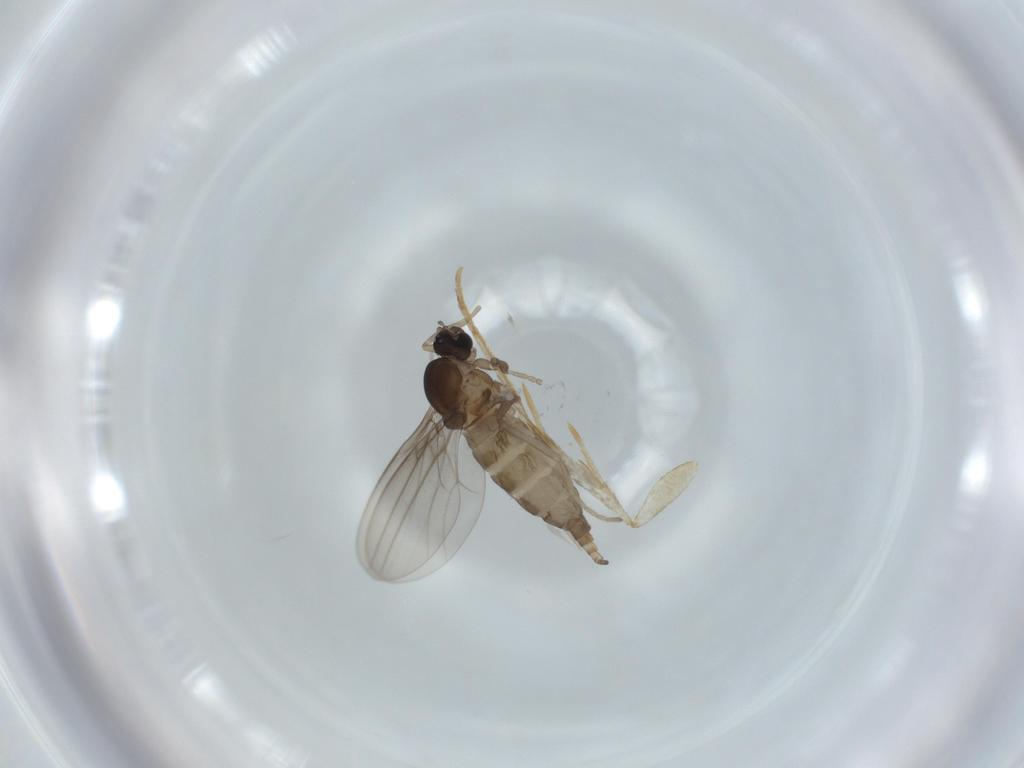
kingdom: Animalia
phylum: Arthropoda
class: Insecta
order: Diptera
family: Cecidomyiidae
